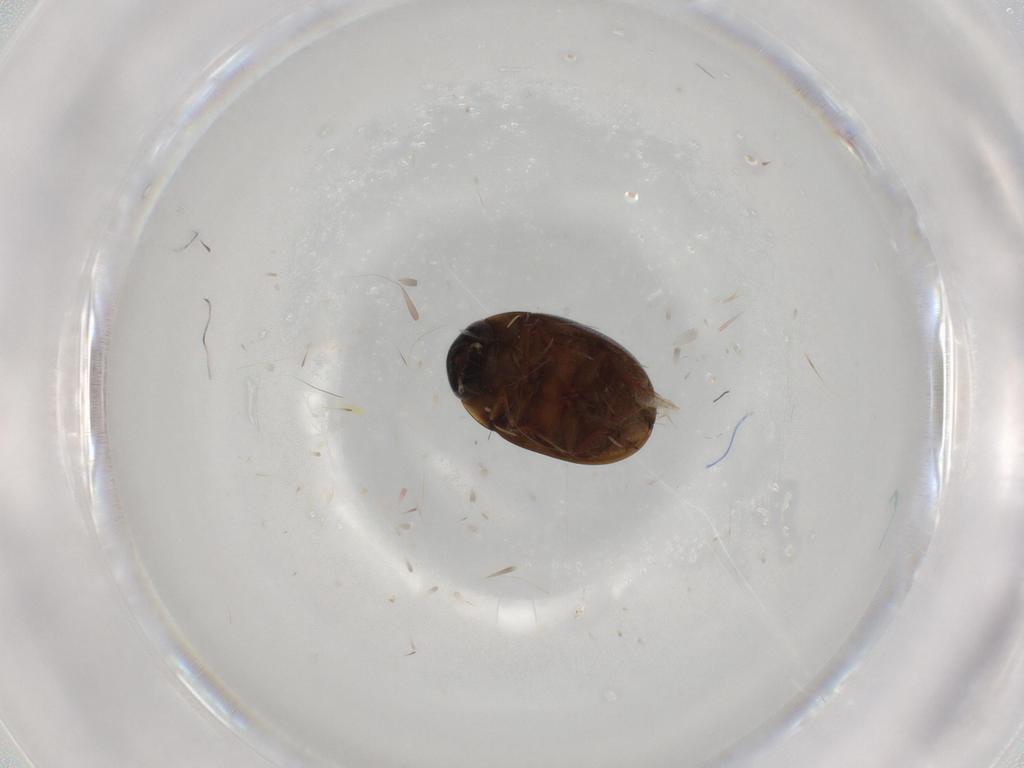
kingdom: Animalia
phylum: Arthropoda
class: Insecta
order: Coleoptera
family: Hydrophilidae
